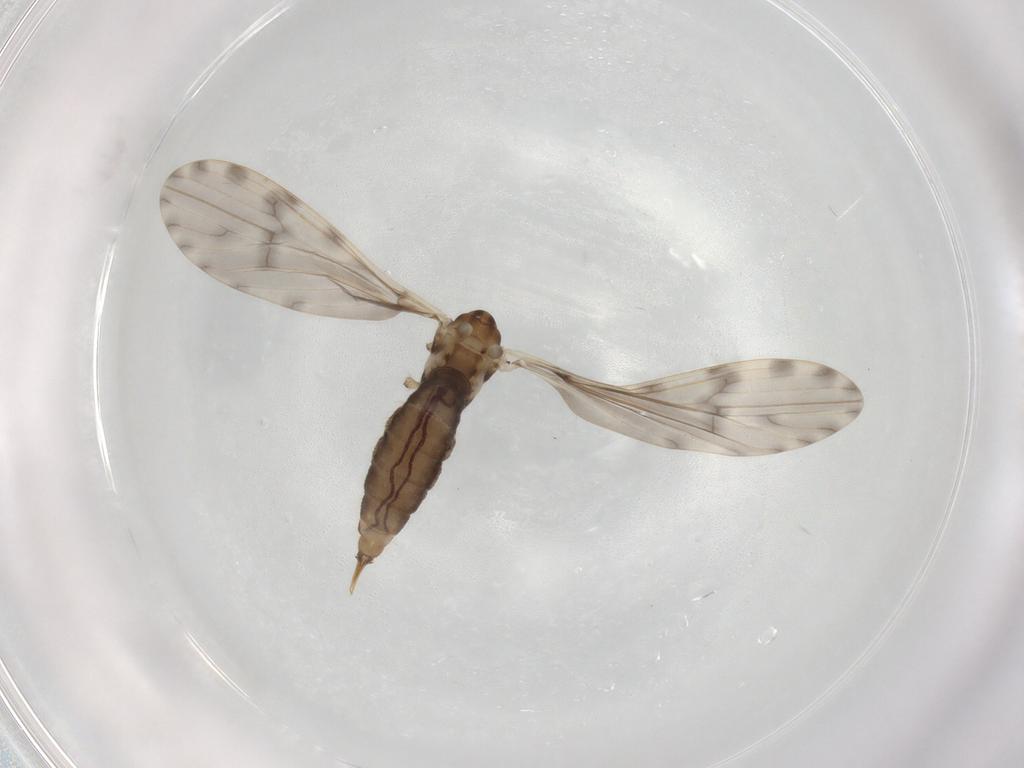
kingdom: Animalia
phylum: Arthropoda
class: Insecta
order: Diptera
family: Limoniidae
